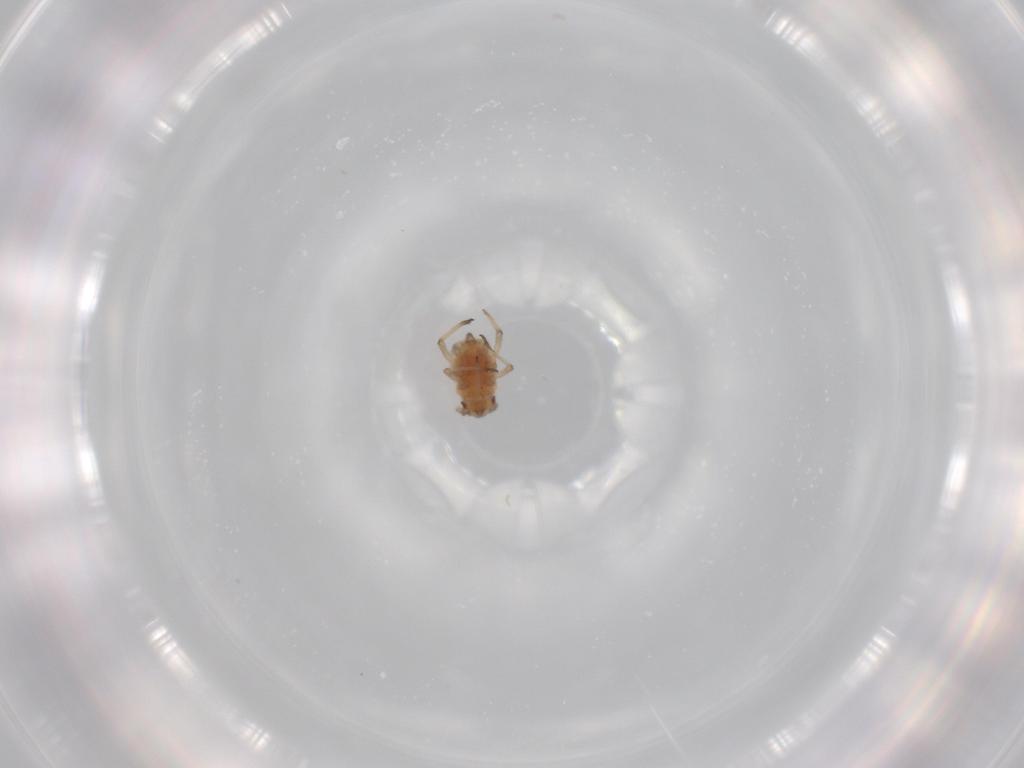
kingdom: Animalia
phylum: Arthropoda
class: Insecta
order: Hemiptera
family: Aphididae
